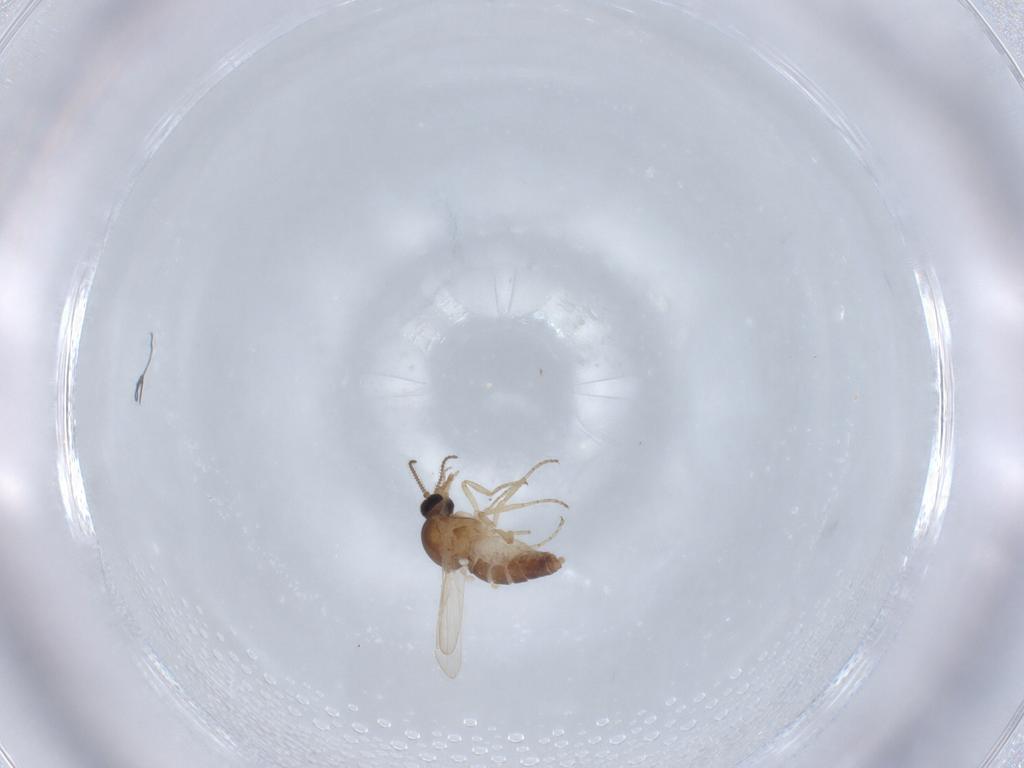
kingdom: Animalia
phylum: Arthropoda
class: Insecta
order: Diptera
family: Ceratopogonidae
